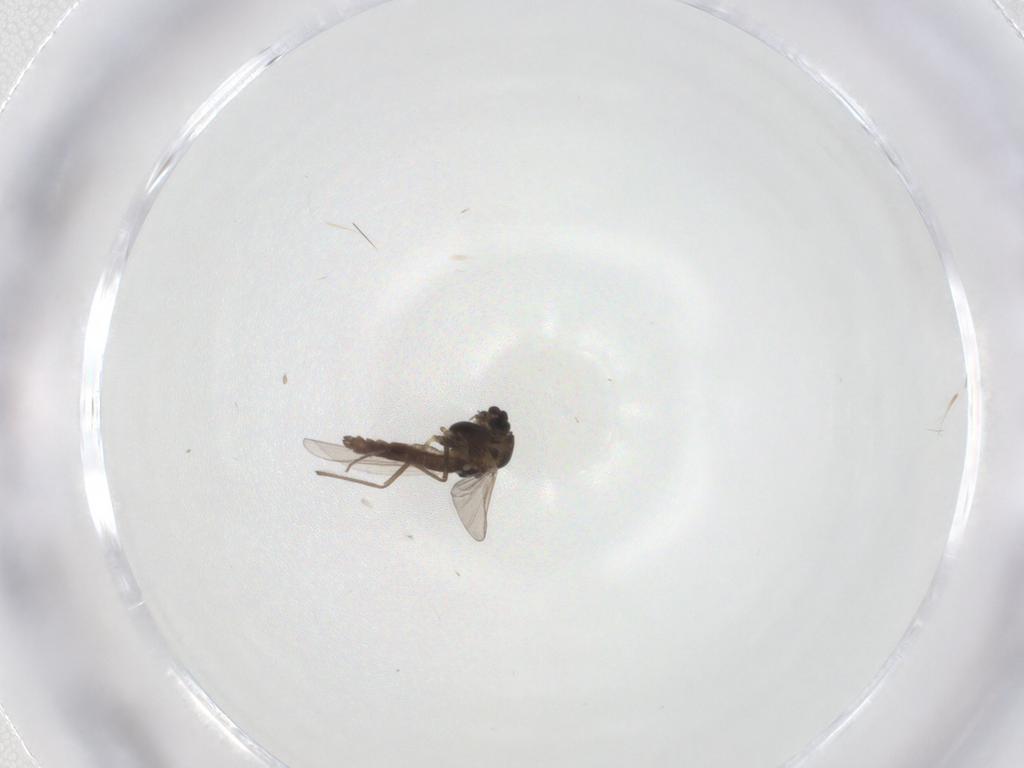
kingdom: Animalia
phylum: Arthropoda
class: Insecta
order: Diptera
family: Chironomidae
